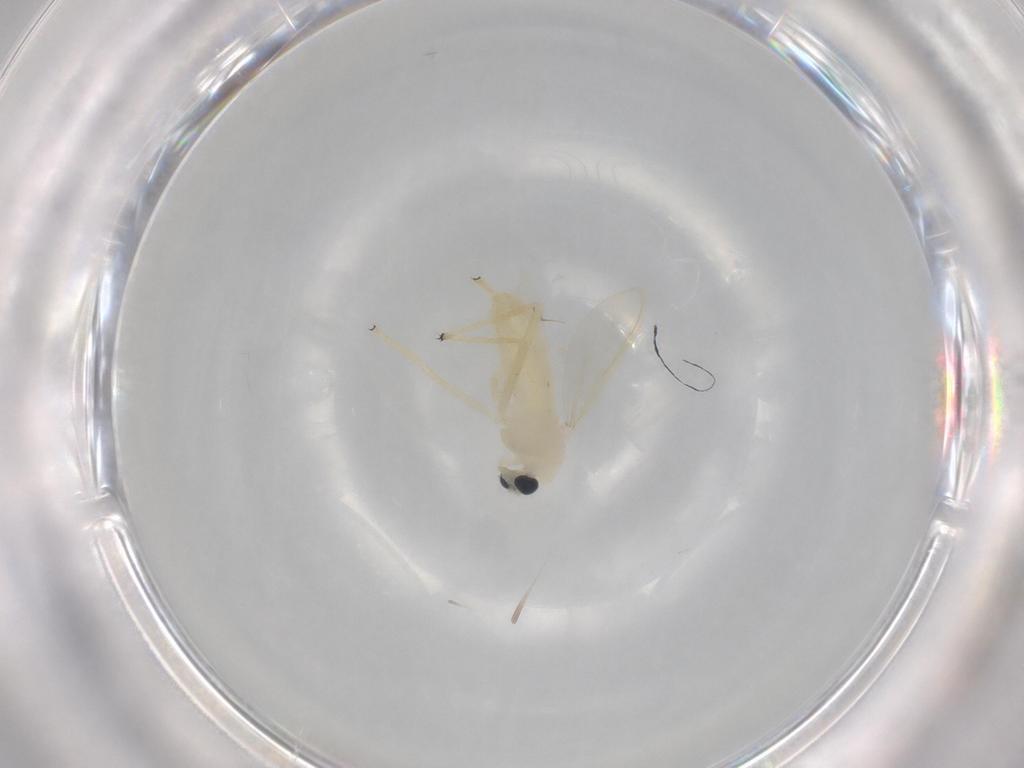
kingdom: Animalia
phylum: Arthropoda
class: Insecta
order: Diptera
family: Chironomidae
